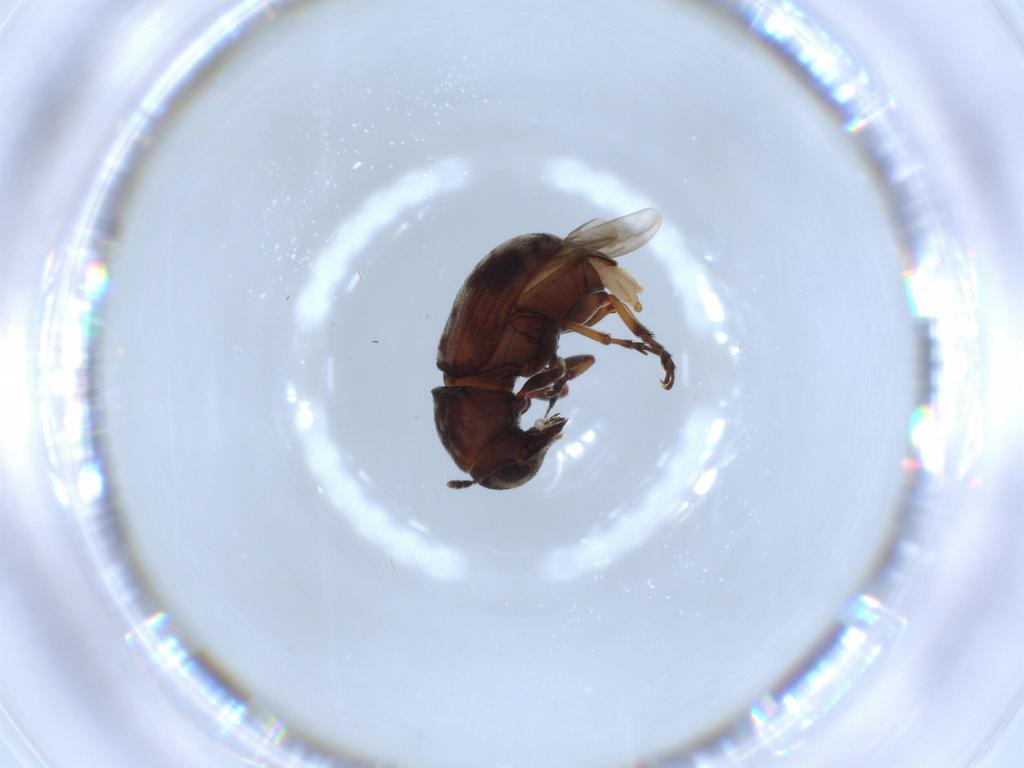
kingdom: Animalia
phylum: Arthropoda
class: Insecta
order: Coleoptera
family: Anthribidae
